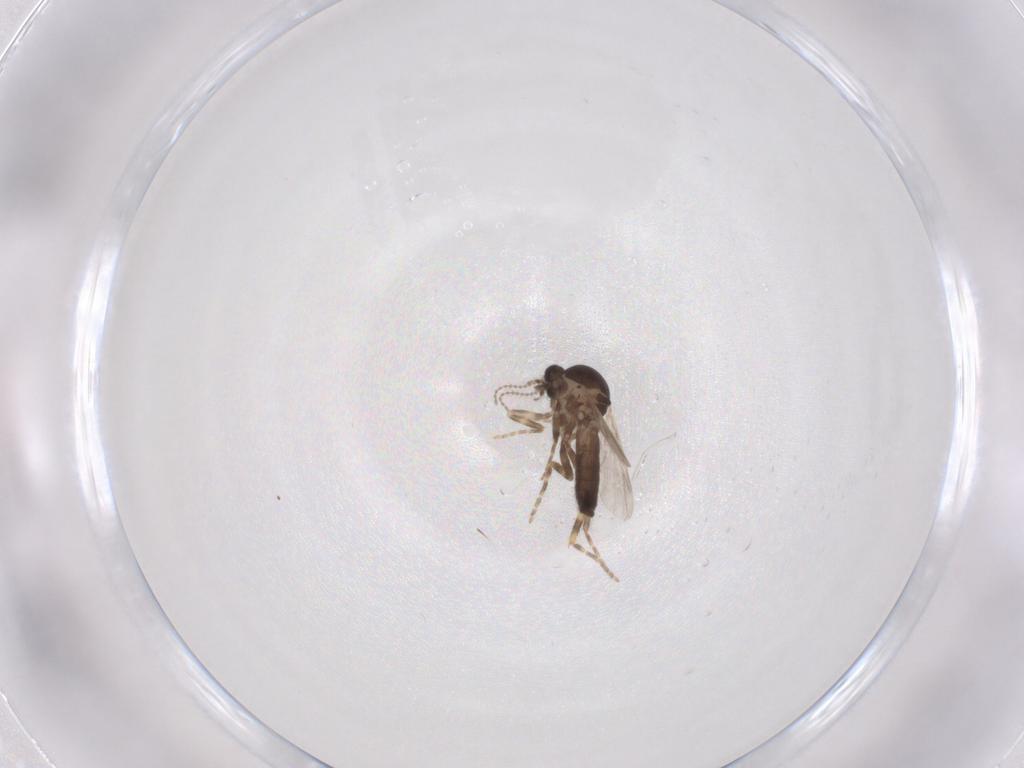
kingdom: Animalia
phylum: Arthropoda
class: Insecta
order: Diptera
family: Ceratopogonidae
